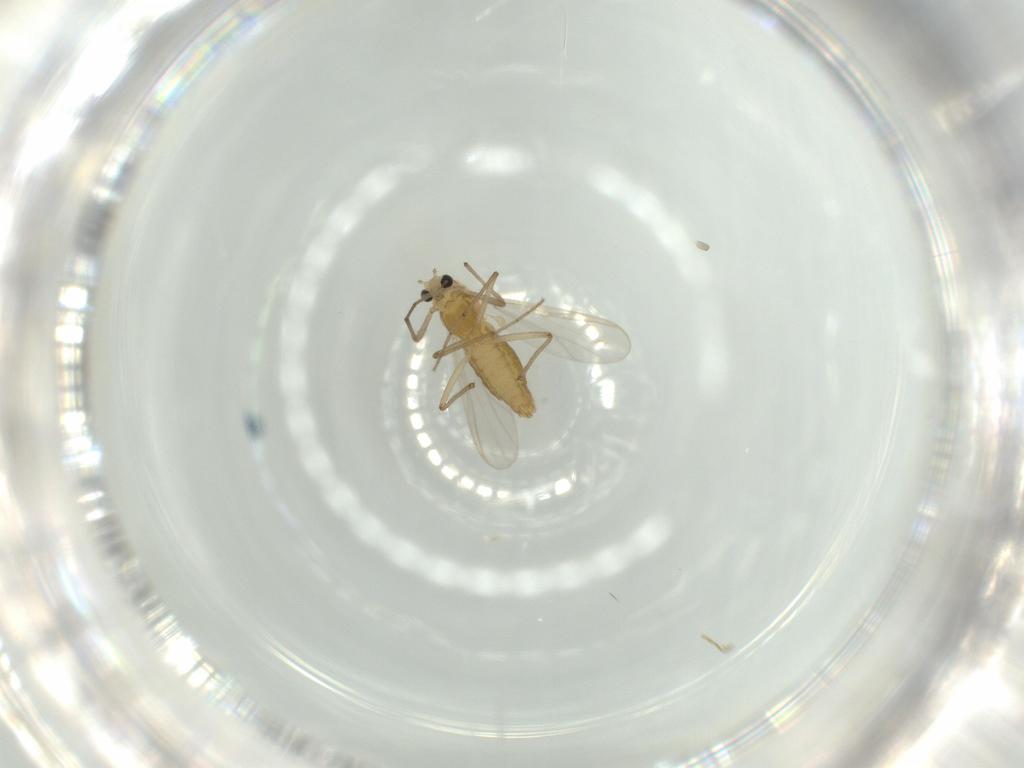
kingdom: Animalia
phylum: Arthropoda
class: Insecta
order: Diptera
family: Chironomidae
